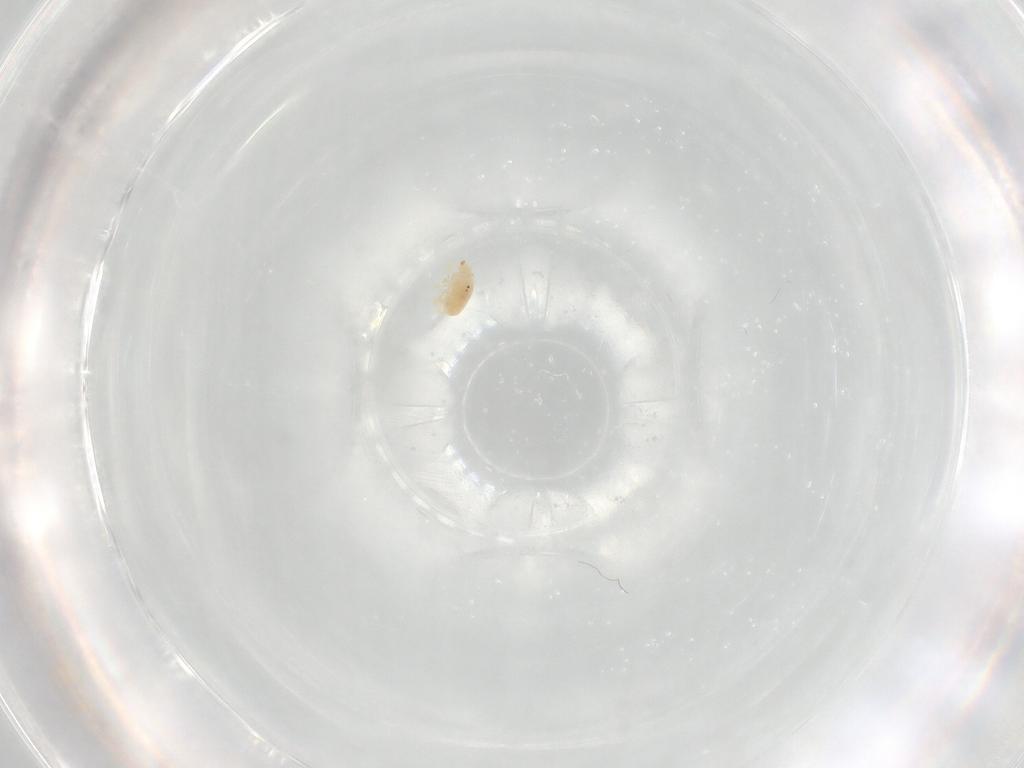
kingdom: Animalia
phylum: Arthropoda
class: Arachnida
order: Trombidiformes
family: Bdellidae
